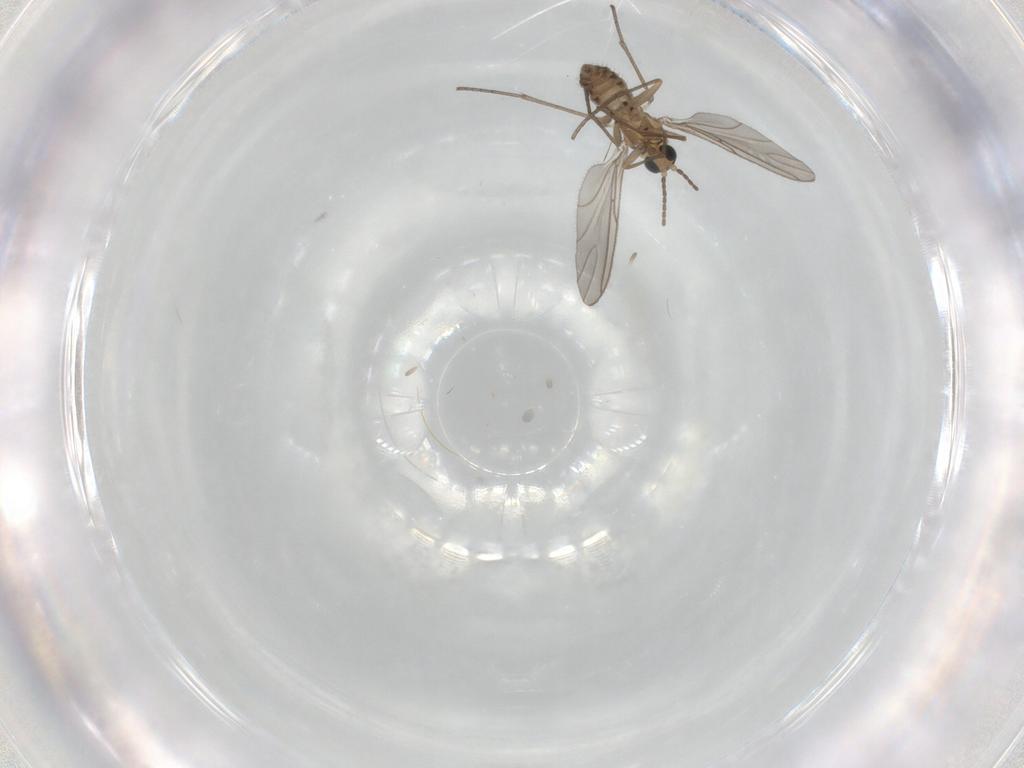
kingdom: Animalia
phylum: Arthropoda
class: Insecta
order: Diptera
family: Sciaridae
